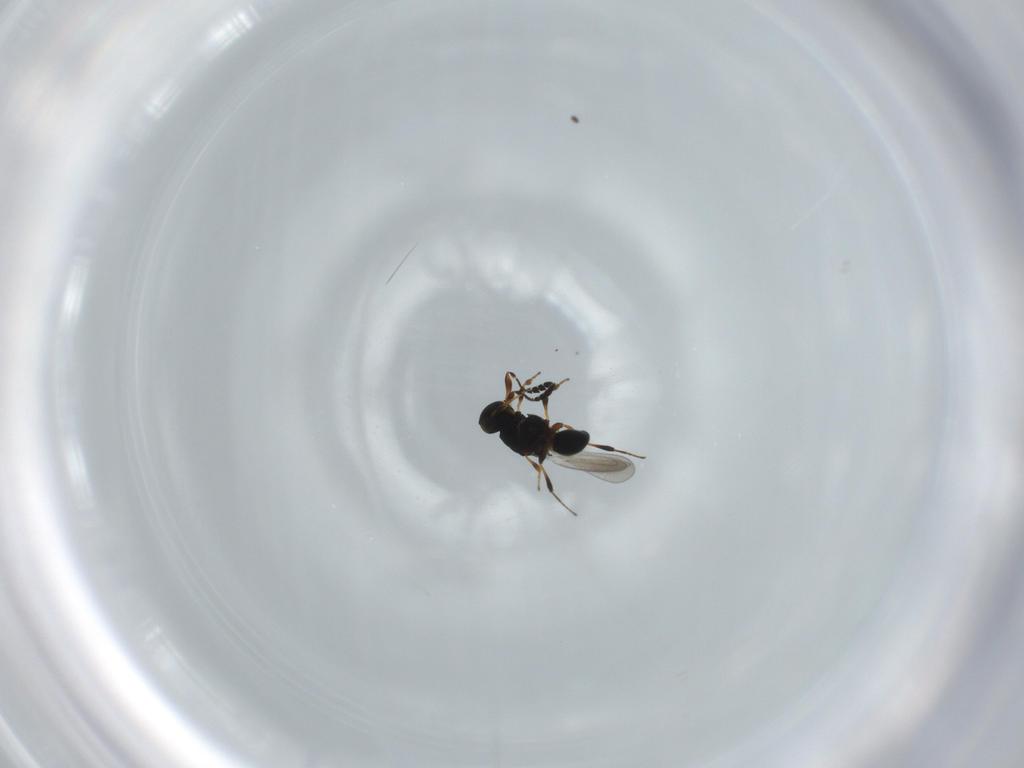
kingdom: Animalia
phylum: Arthropoda
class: Insecta
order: Hymenoptera
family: Platygastridae
